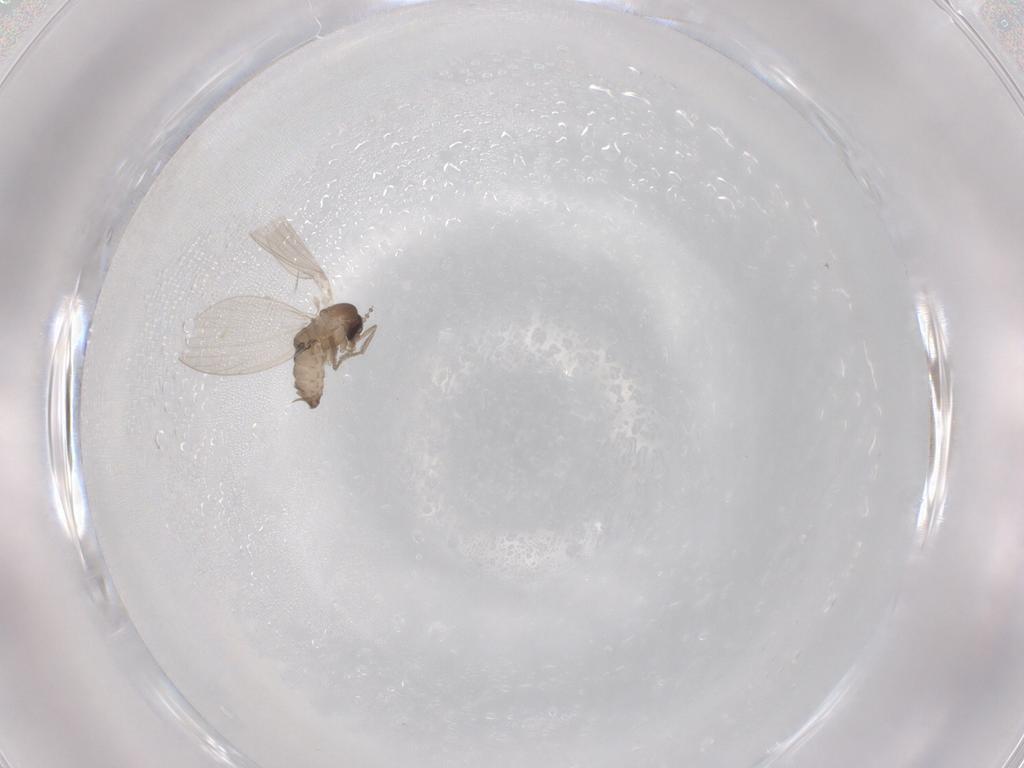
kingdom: Animalia
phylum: Arthropoda
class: Insecta
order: Diptera
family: Psychodidae
